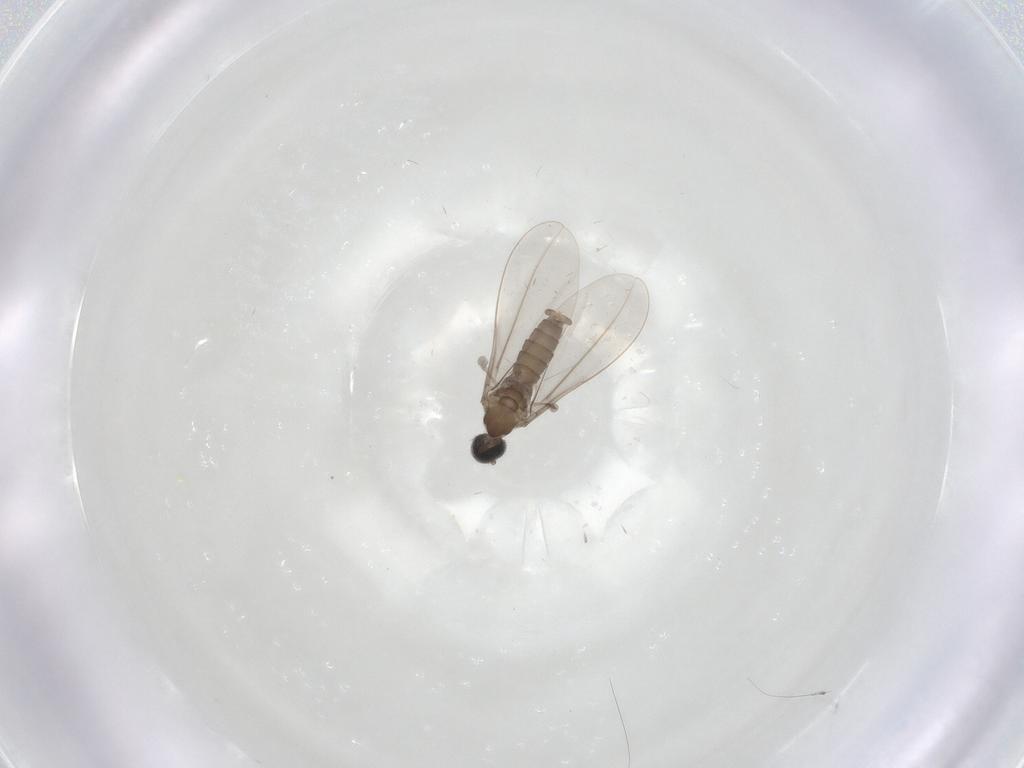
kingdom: Animalia
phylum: Arthropoda
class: Insecta
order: Diptera
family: Cecidomyiidae
